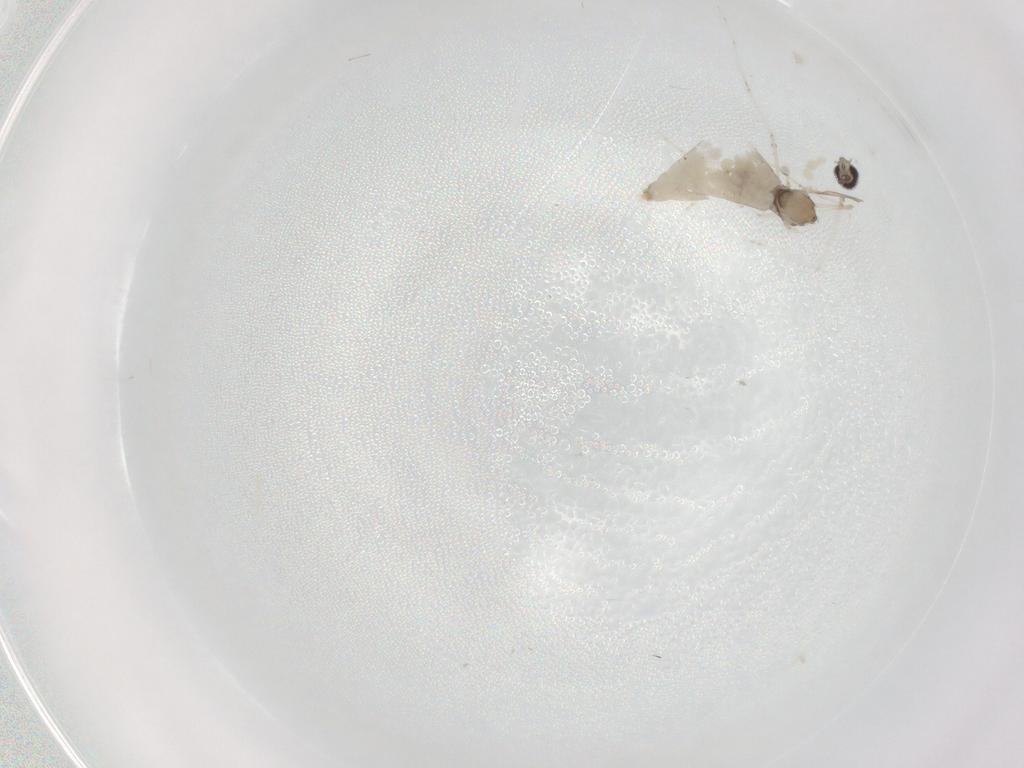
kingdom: Animalia
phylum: Arthropoda
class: Insecta
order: Diptera
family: Cecidomyiidae
